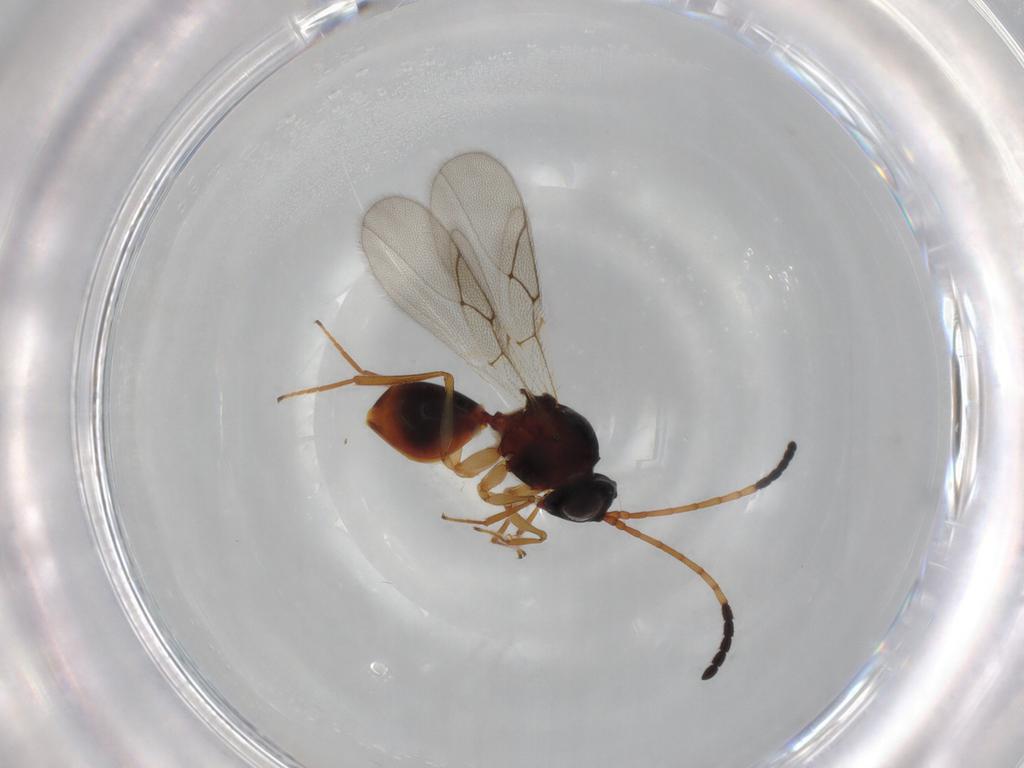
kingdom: Animalia
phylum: Arthropoda
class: Insecta
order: Hymenoptera
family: Figitidae
